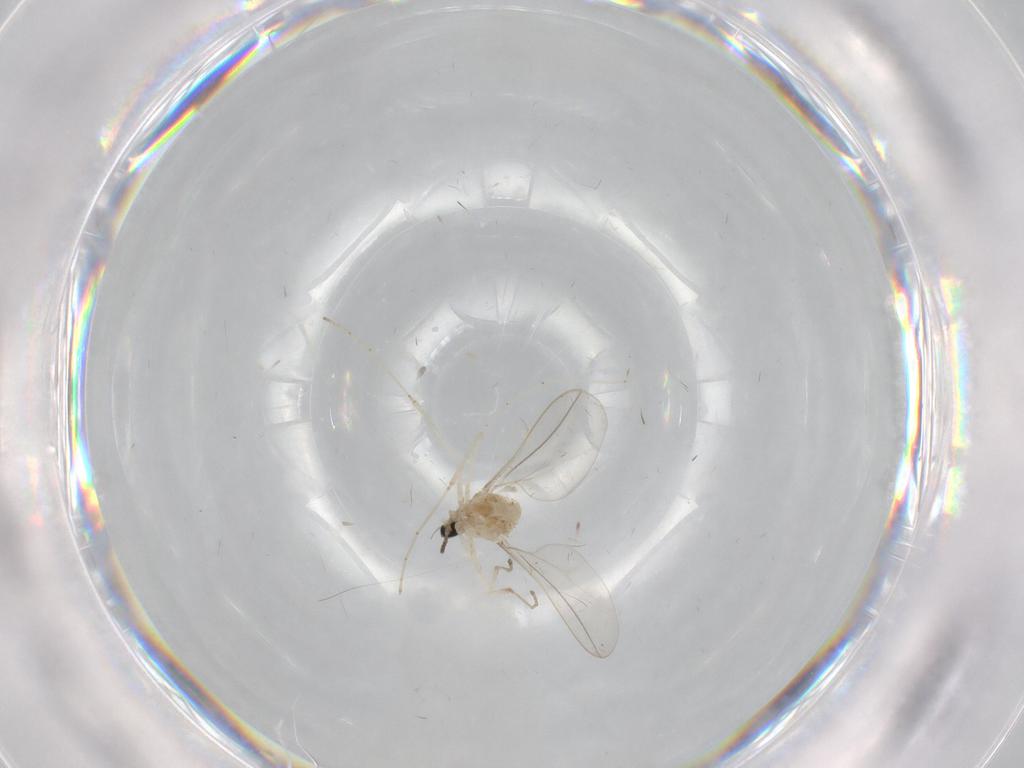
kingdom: Animalia
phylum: Arthropoda
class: Insecta
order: Diptera
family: Cecidomyiidae
